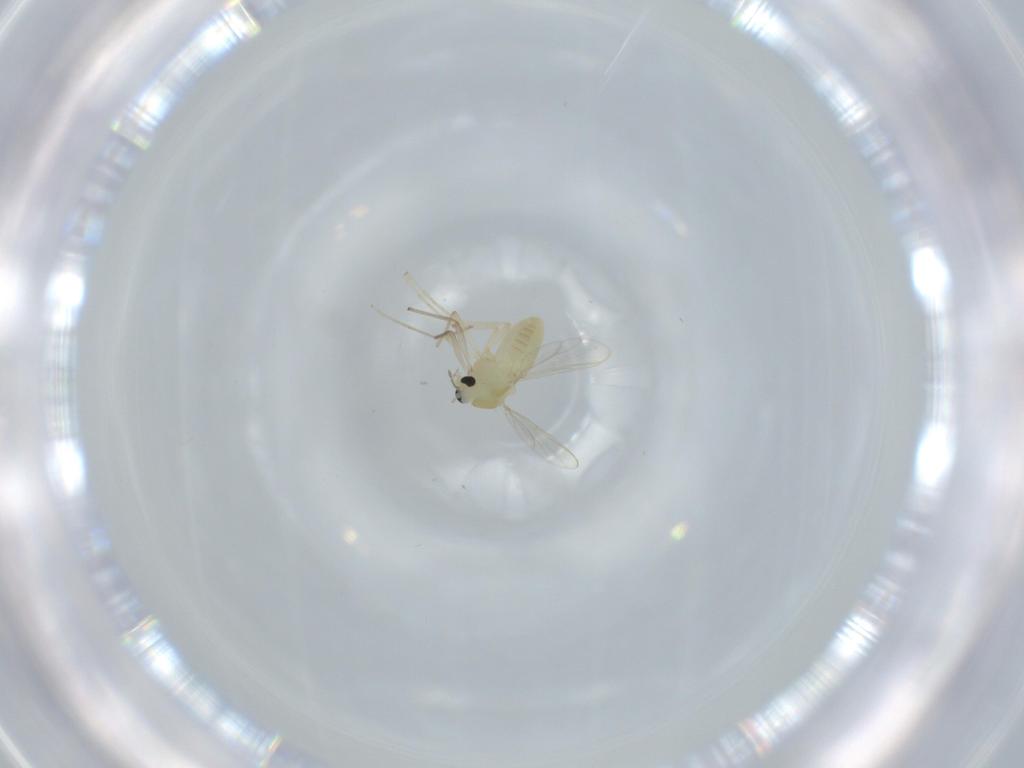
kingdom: Animalia
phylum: Arthropoda
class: Insecta
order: Diptera
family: Chironomidae
